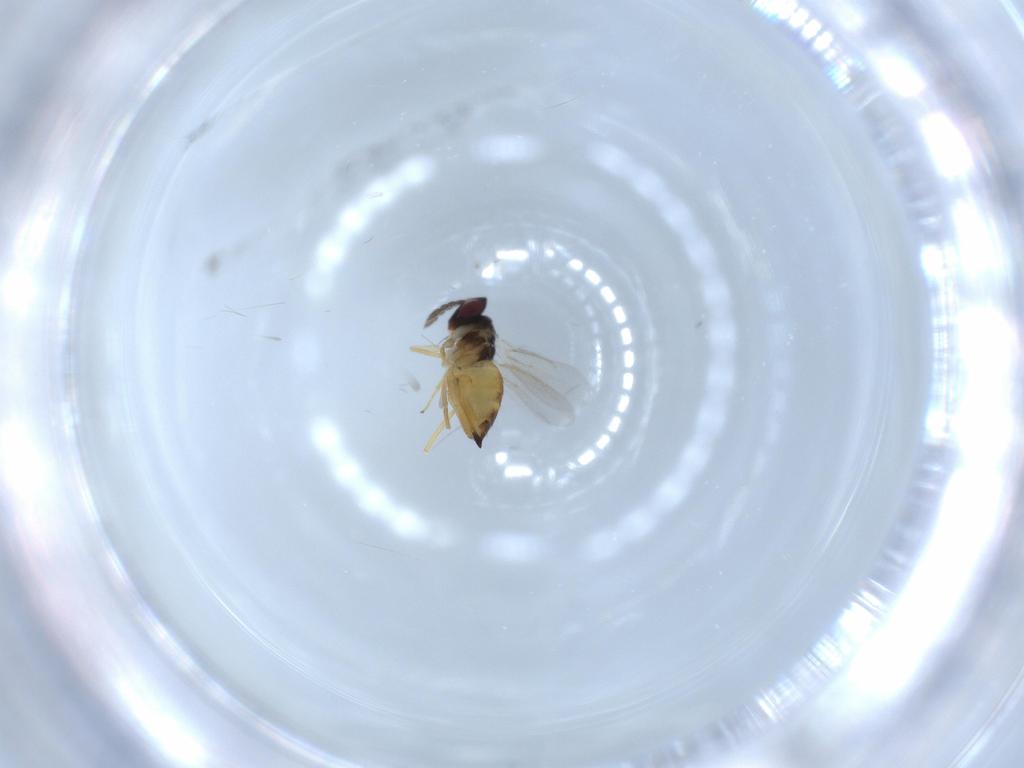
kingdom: Animalia
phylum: Arthropoda
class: Insecta
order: Hymenoptera
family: Eulophidae
